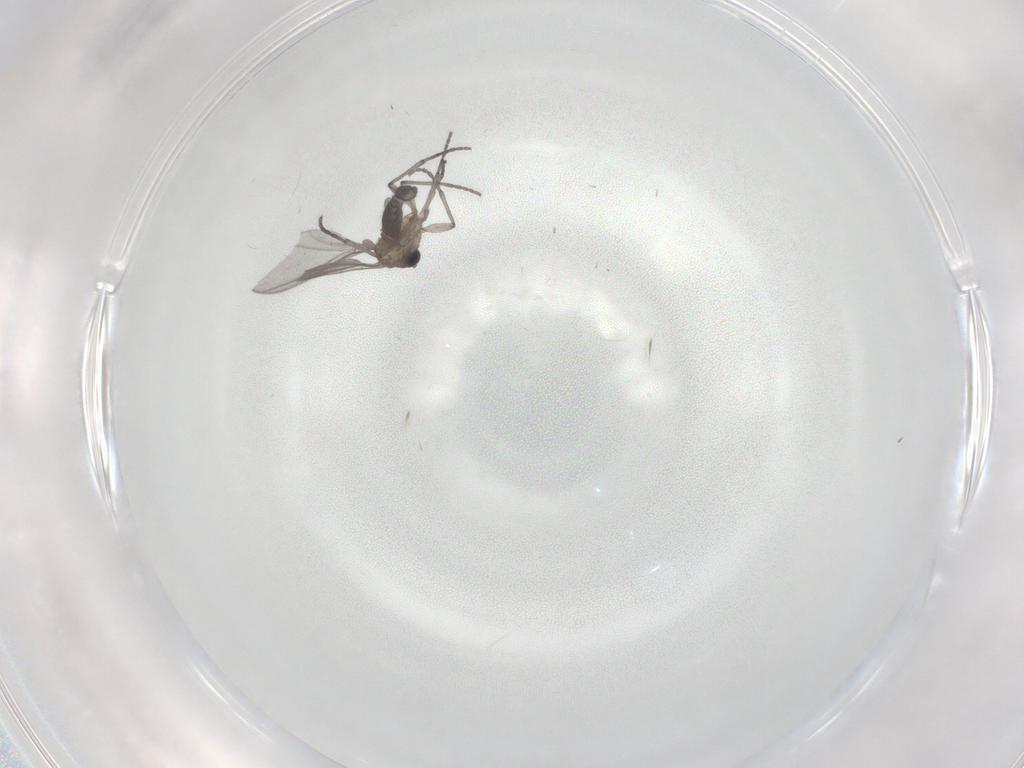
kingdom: Animalia
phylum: Arthropoda
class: Insecta
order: Diptera
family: Dolichopodidae
